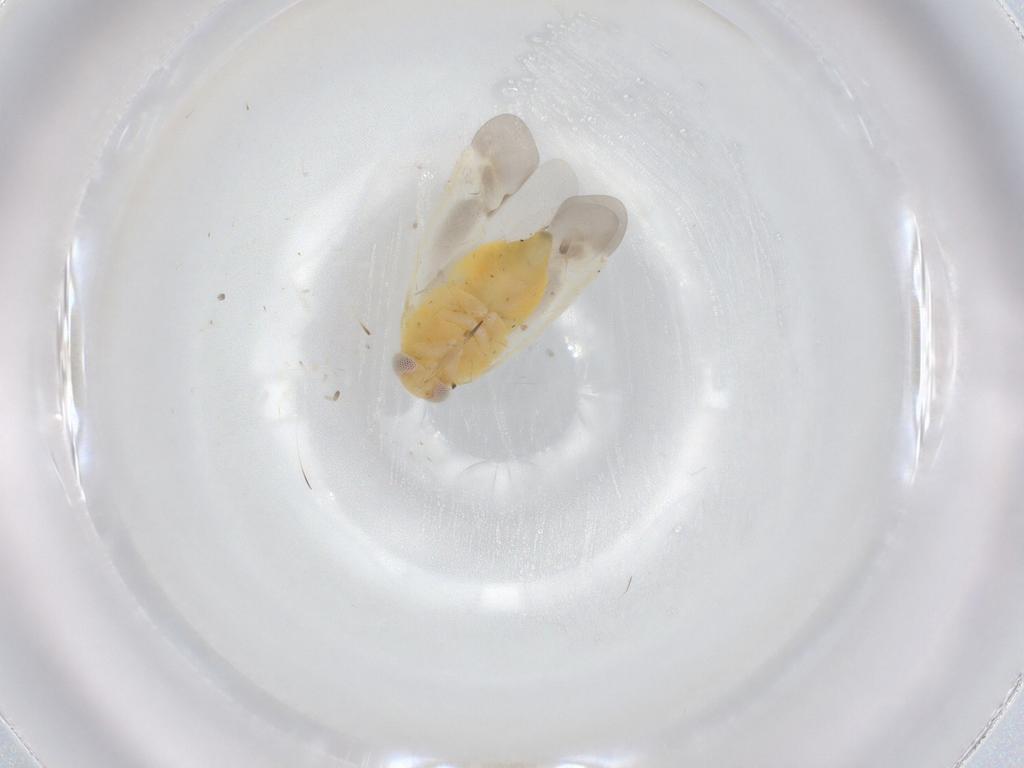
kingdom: Animalia
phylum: Arthropoda
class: Insecta
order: Hemiptera
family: Miridae
